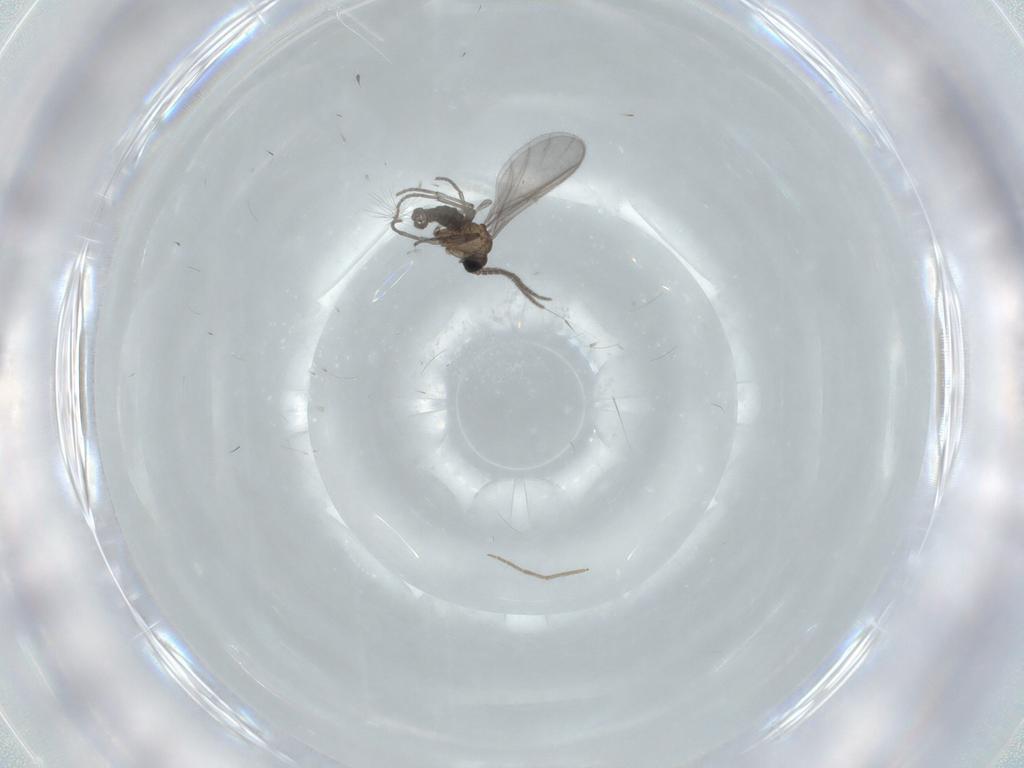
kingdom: Animalia
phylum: Arthropoda
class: Insecta
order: Diptera
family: Sciaridae
